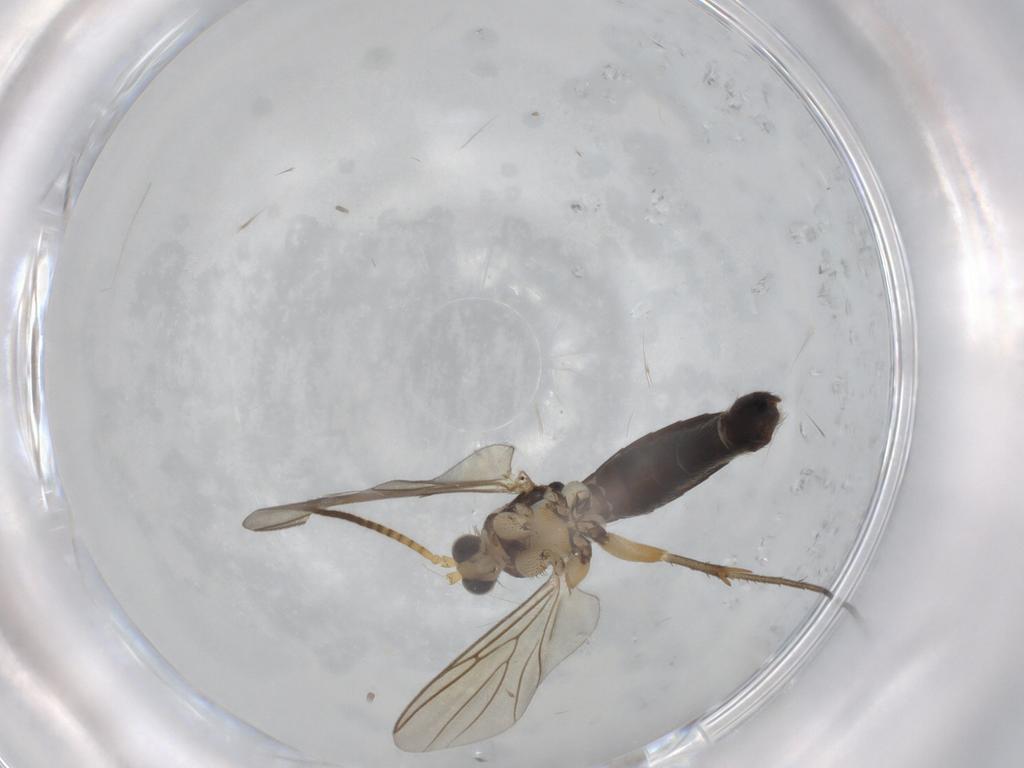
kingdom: Animalia
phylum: Arthropoda
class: Insecta
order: Diptera
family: Mycetophilidae
